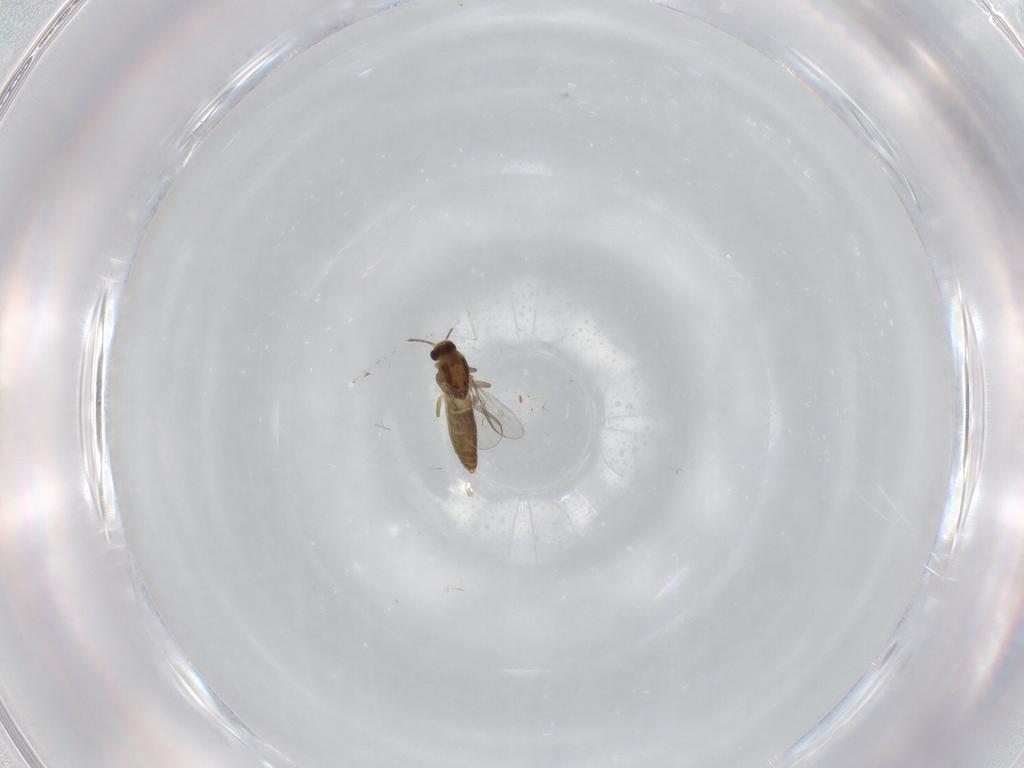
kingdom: Animalia
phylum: Arthropoda
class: Insecta
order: Diptera
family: Chironomidae
